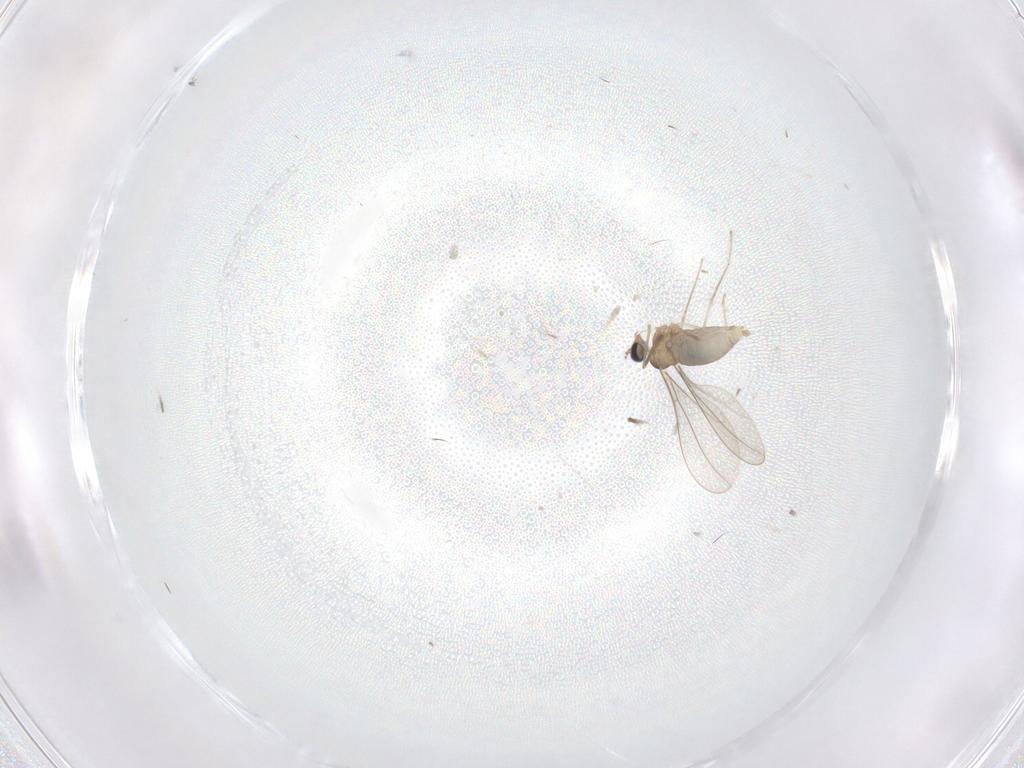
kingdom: Animalia
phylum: Arthropoda
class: Insecta
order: Diptera
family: Cecidomyiidae
